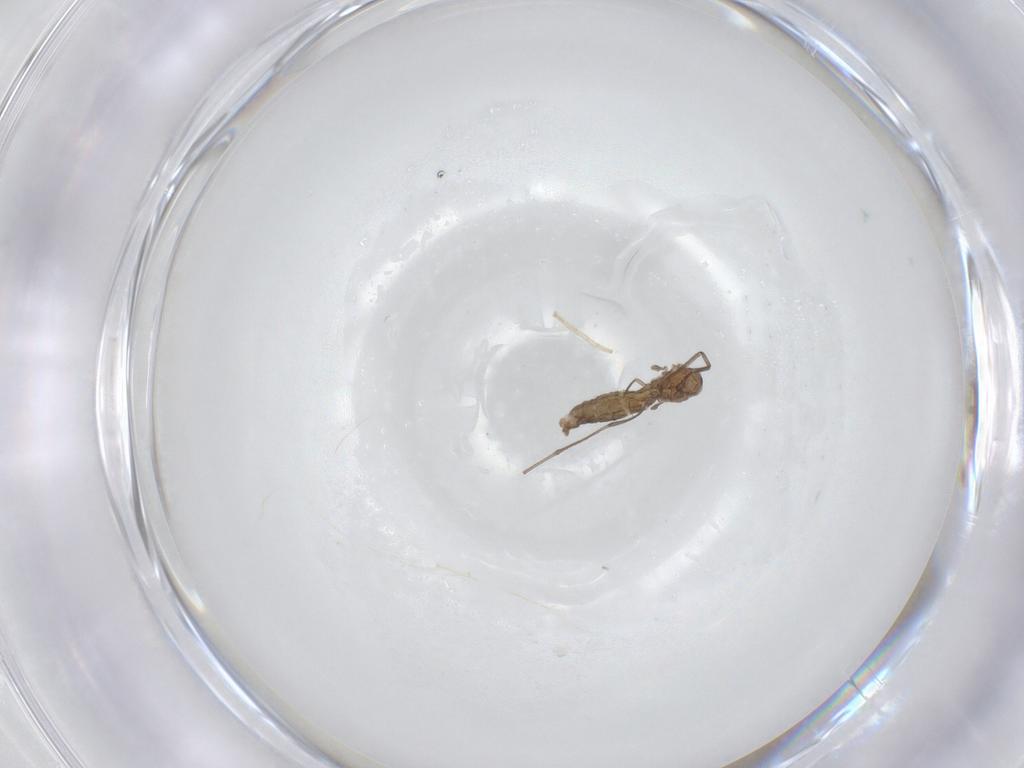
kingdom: Animalia
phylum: Arthropoda
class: Insecta
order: Diptera
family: Cecidomyiidae
